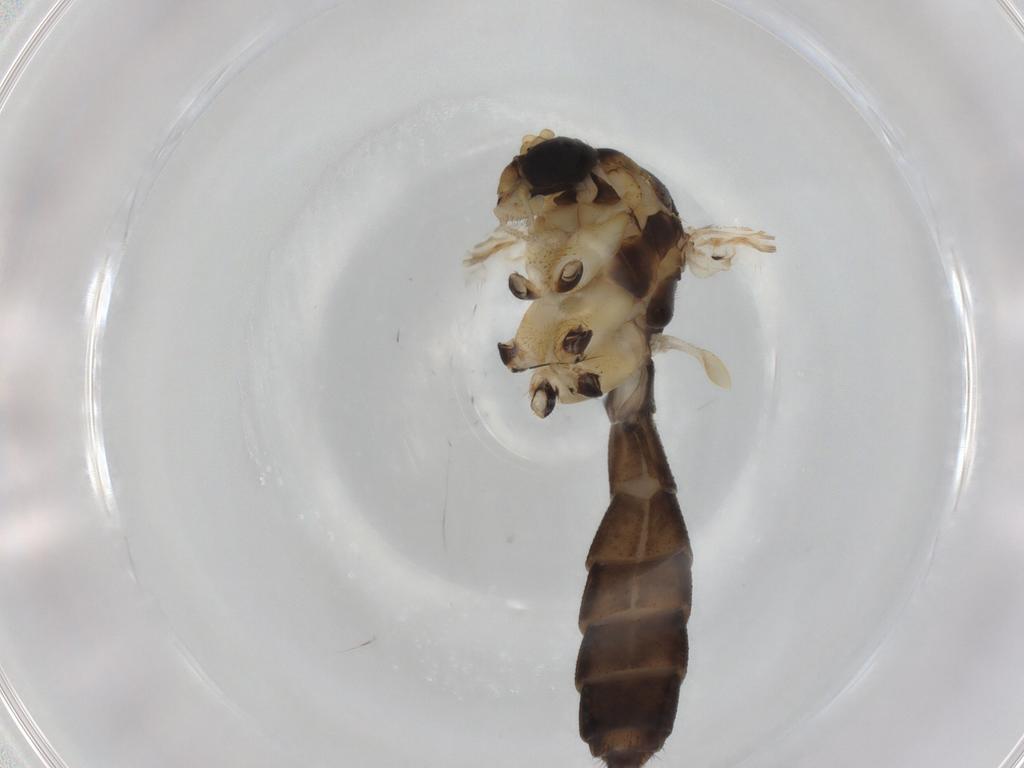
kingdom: Animalia
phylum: Arthropoda
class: Insecta
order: Diptera
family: Mycetophilidae
